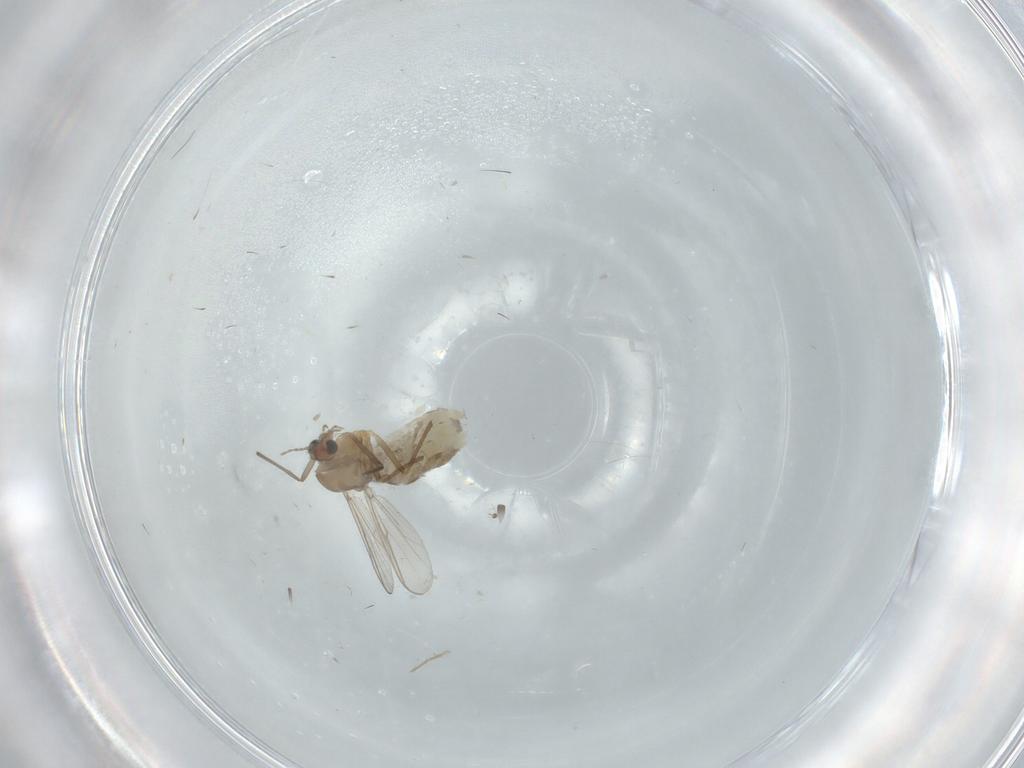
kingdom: Animalia
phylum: Arthropoda
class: Insecta
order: Diptera
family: Chironomidae
